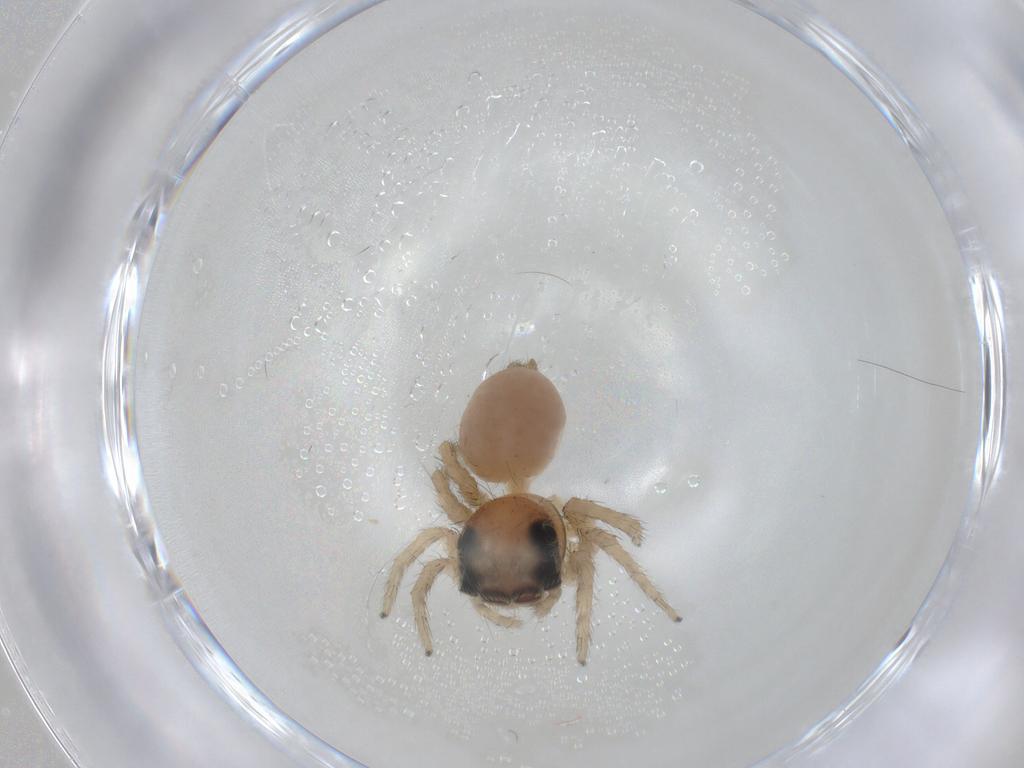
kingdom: Animalia
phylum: Arthropoda
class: Arachnida
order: Araneae
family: Salticidae
